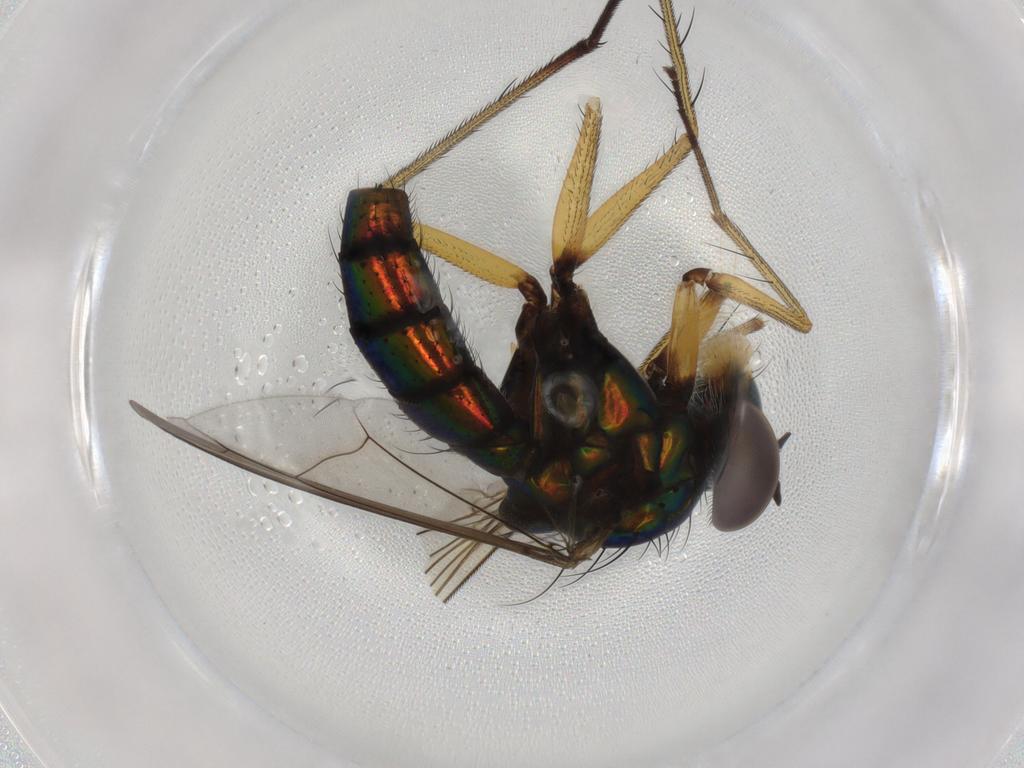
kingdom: Animalia
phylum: Arthropoda
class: Insecta
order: Diptera
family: Dolichopodidae
